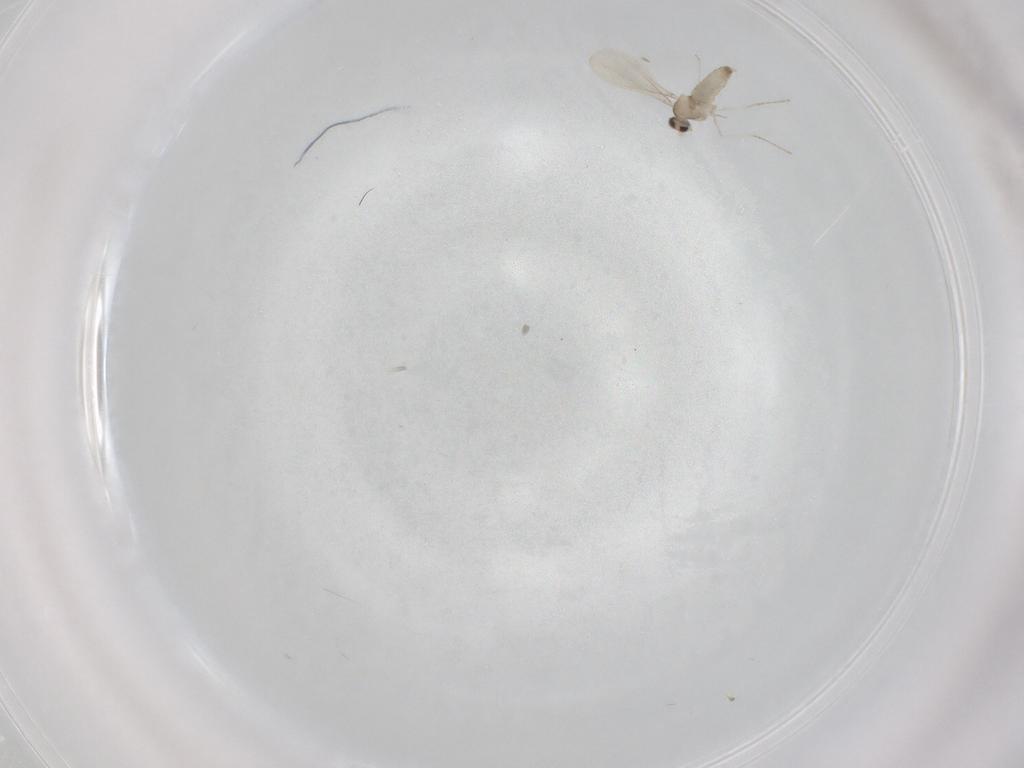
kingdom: Animalia
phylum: Arthropoda
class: Insecta
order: Diptera
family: Cecidomyiidae
